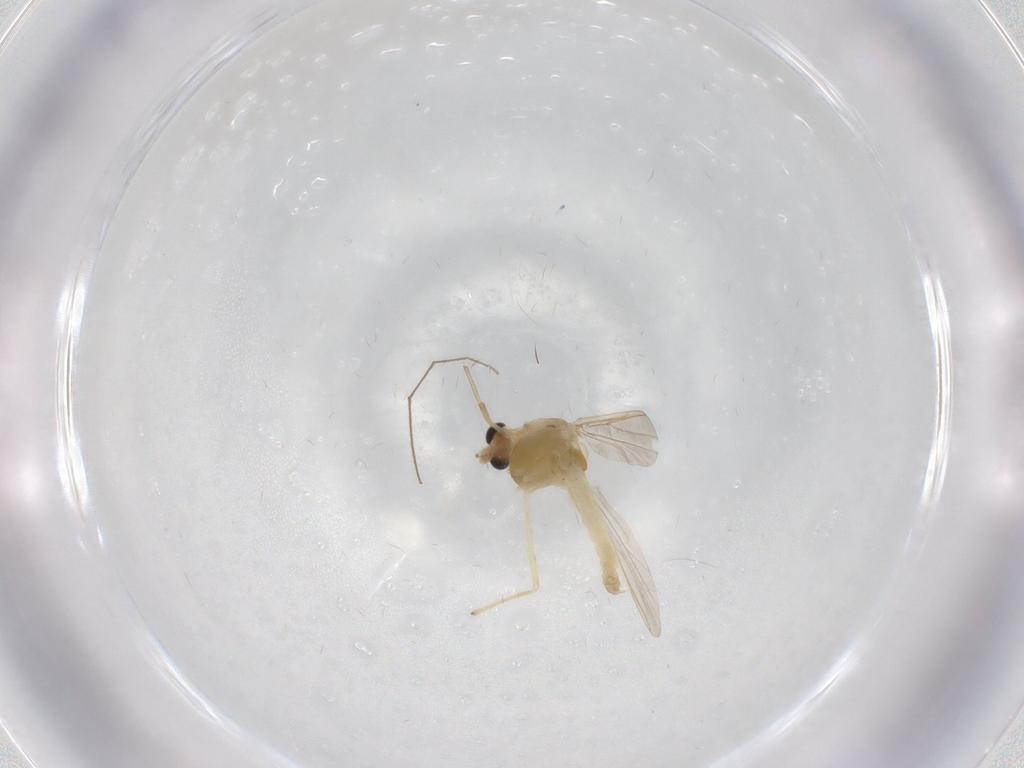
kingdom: Animalia
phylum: Arthropoda
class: Insecta
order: Diptera
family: Chironomidae
